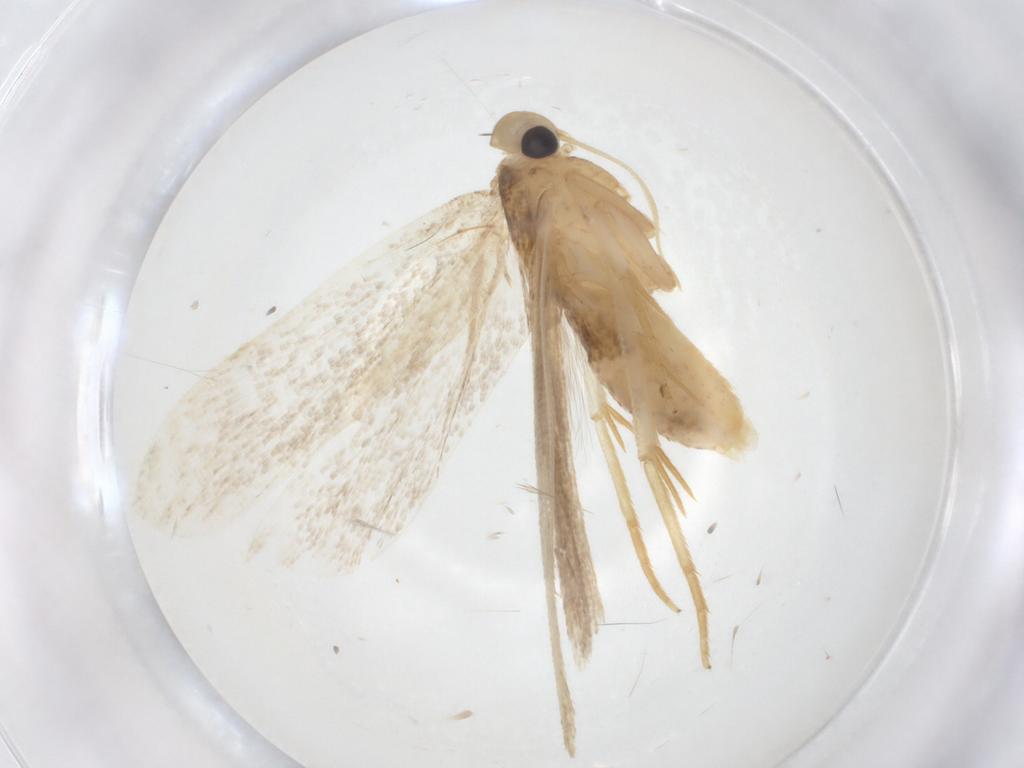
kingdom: Animalia
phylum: Arthropoda
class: Insecta
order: Lepidoptera
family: Gelechiidae
